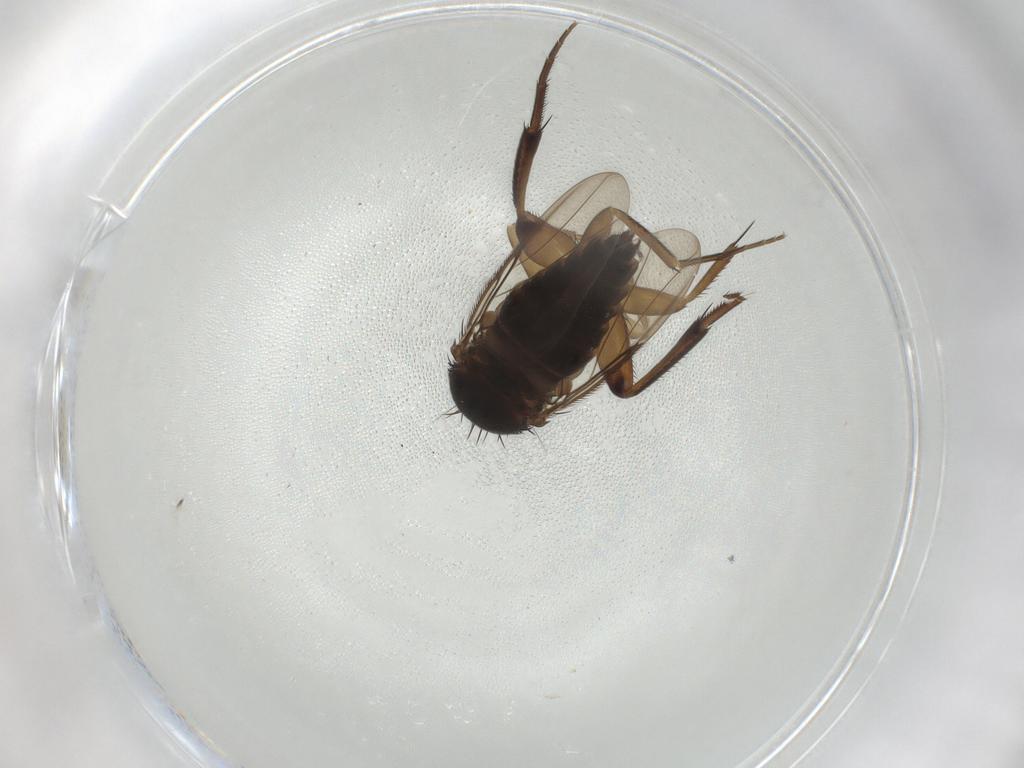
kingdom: Animalia
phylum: Arthropoda
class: Insecta
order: Diptera
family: Phoridae
